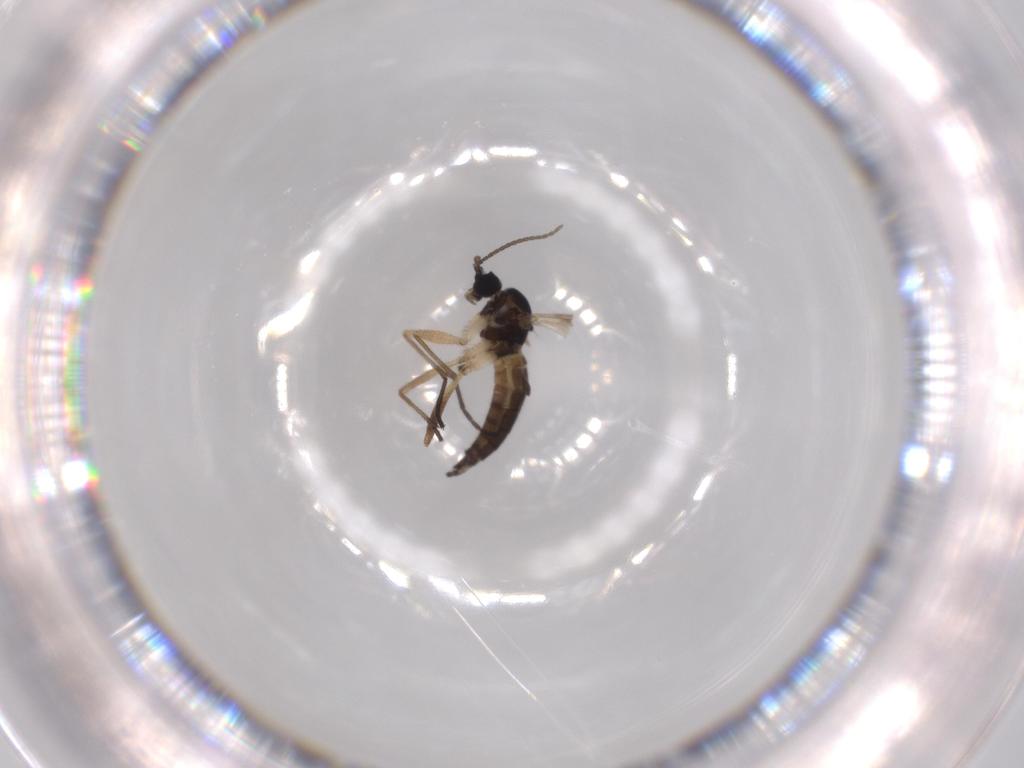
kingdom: Animalia
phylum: Arthropoda
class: Insecta
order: Diptera
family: Sciaridae
